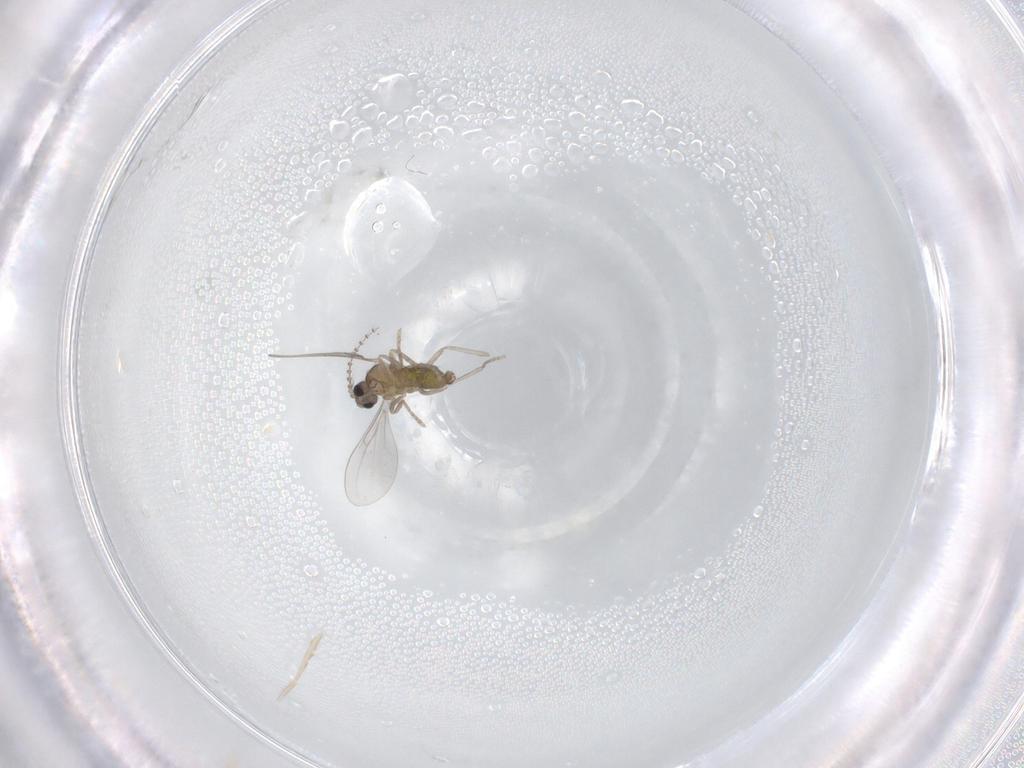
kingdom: Animalia
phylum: Arthropoda
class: Insecta
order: Diptera
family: Cecidomyiidae
